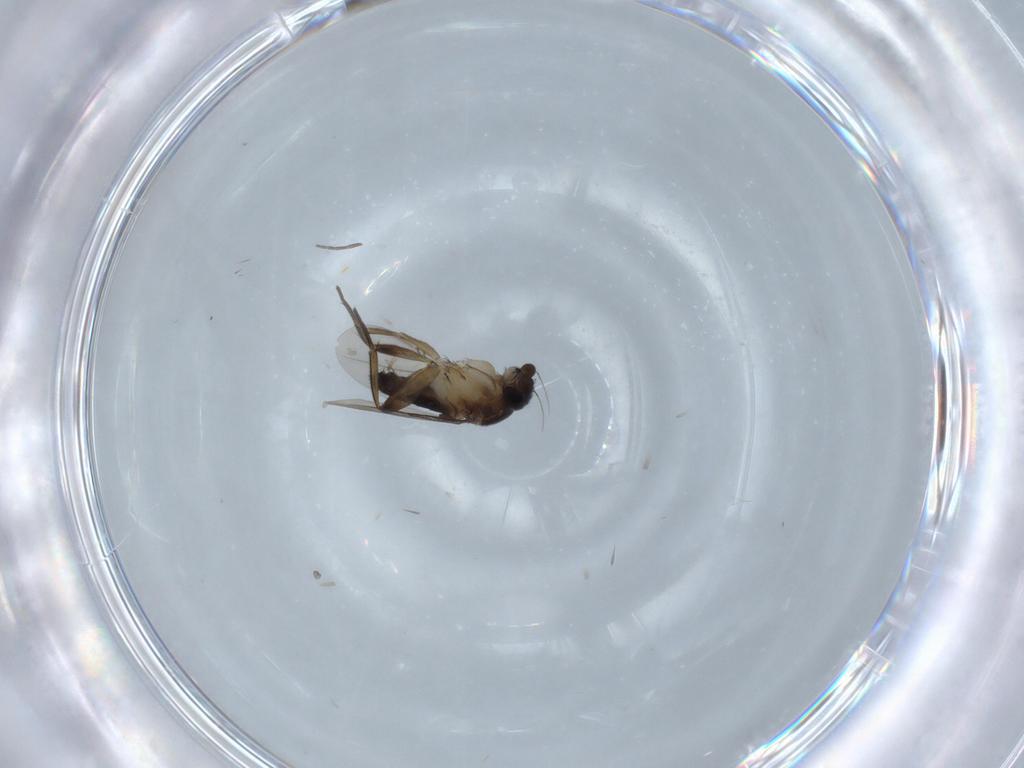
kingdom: Animalia
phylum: Arthropoda
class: Insecta
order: Diptera
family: Phoridae
